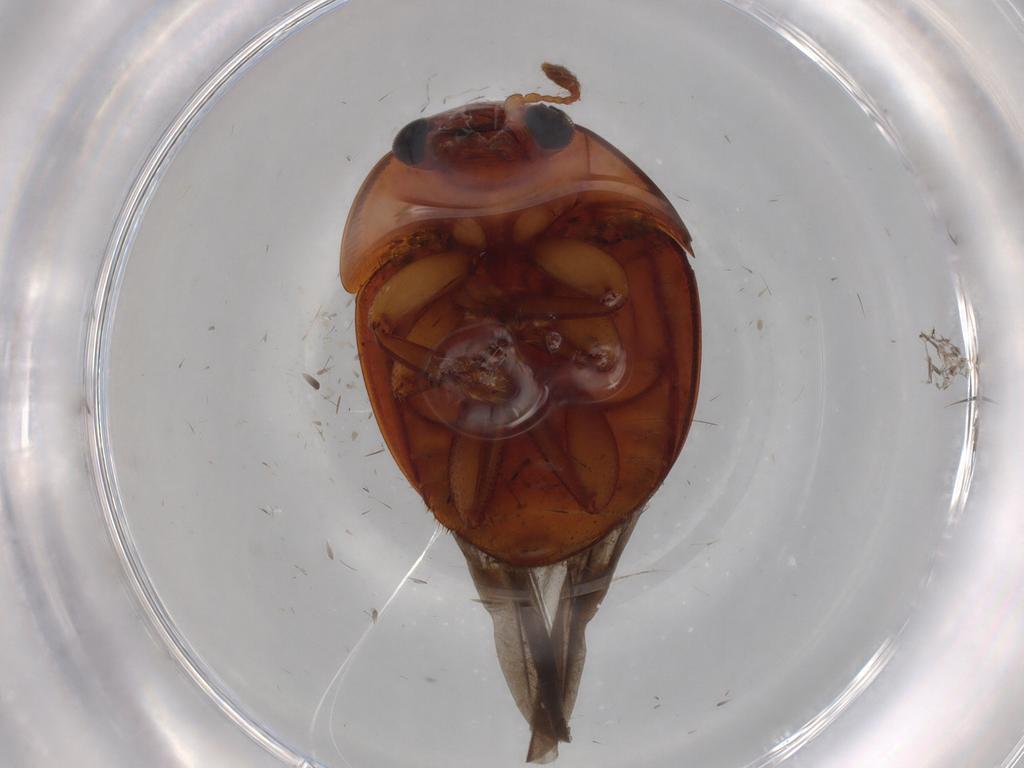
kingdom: Animalia
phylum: Arthropoda
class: Insecta
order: Coleoptera
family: Nitidulidae
